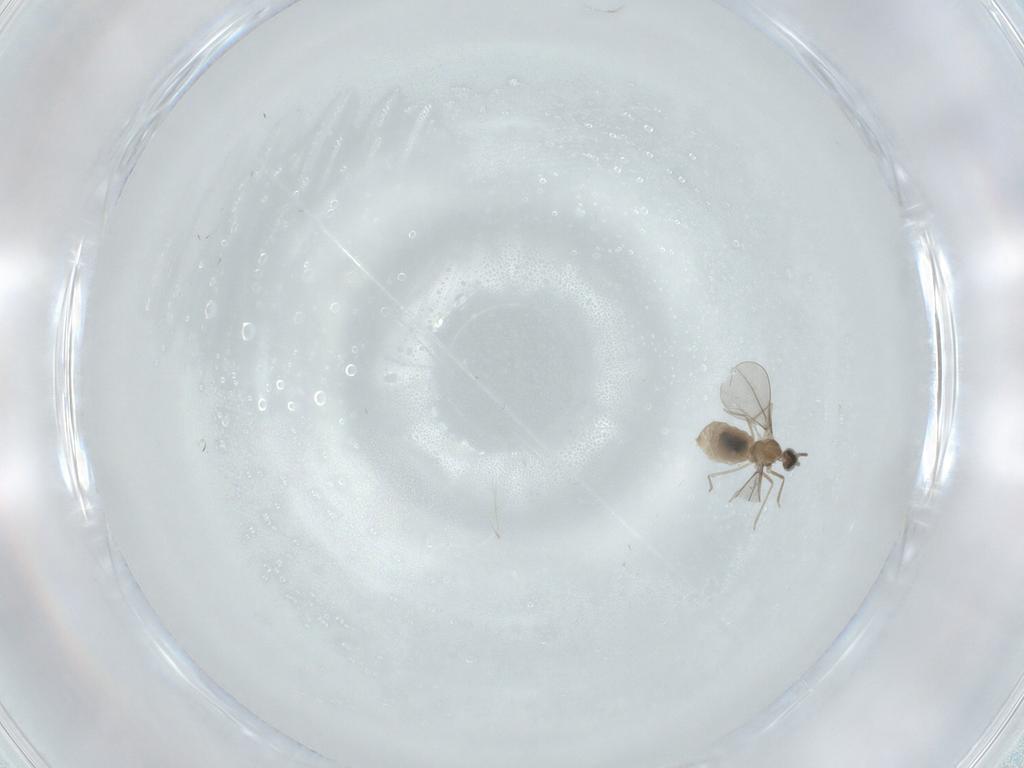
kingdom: Animalia
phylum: Arthropoda
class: Insecta
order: Diptera
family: Cecidomyiidae
